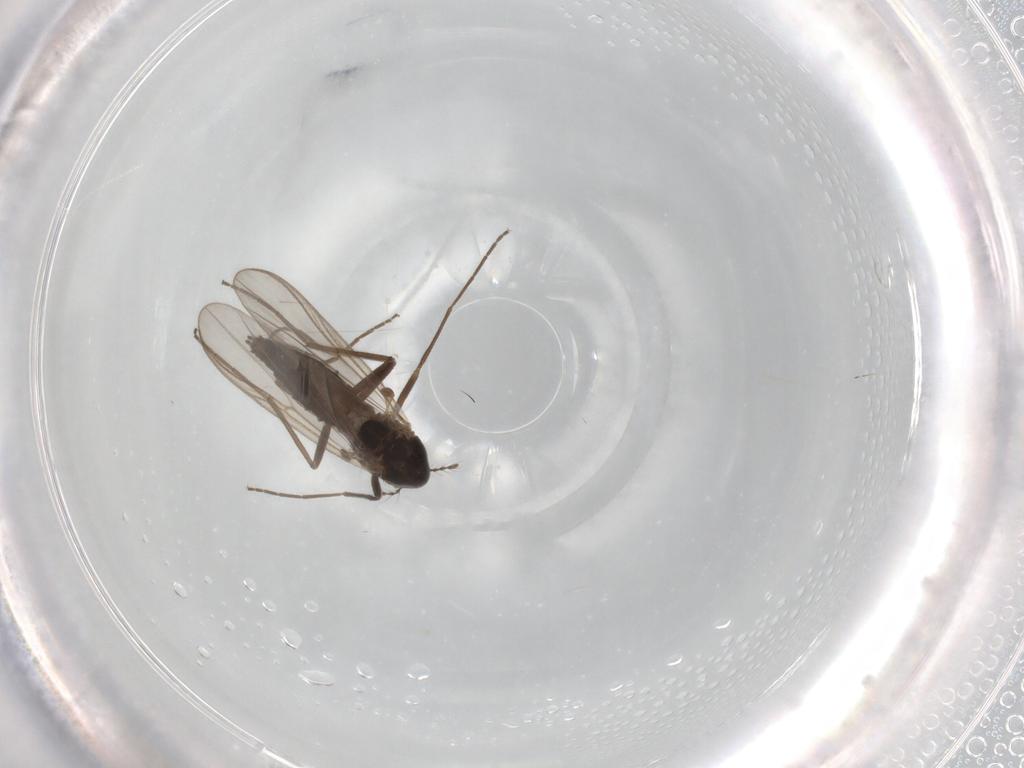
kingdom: Animalia
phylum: Arthropoda
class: Insecta
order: Diptera
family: Chironomidae
